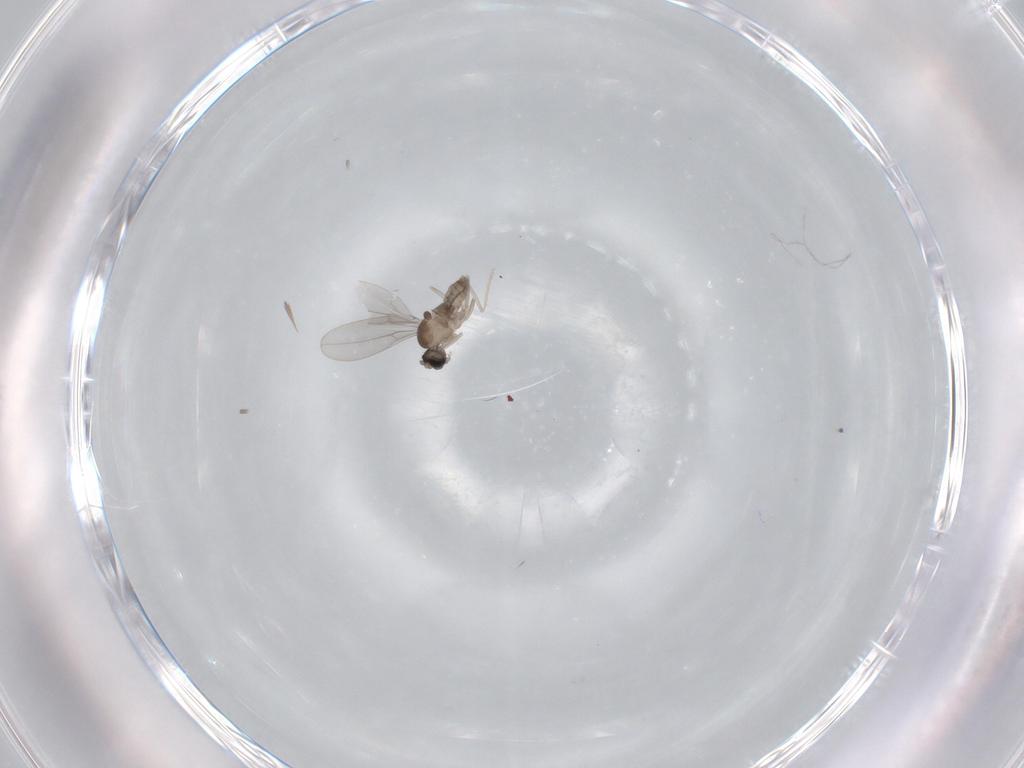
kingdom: Animalia
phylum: Arthropoda
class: Insecta
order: Diptera
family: Cecidomyiidae
